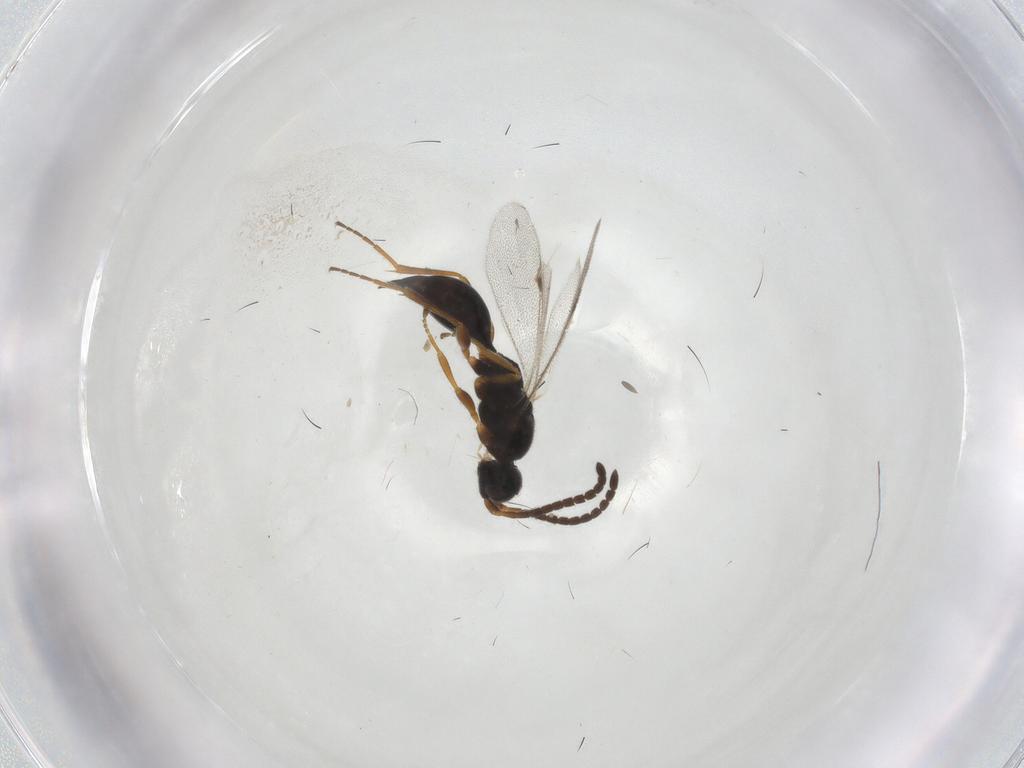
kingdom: Animalia
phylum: Arthropoda
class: Insecta
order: Hymenoptera
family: Proctotrupidae
